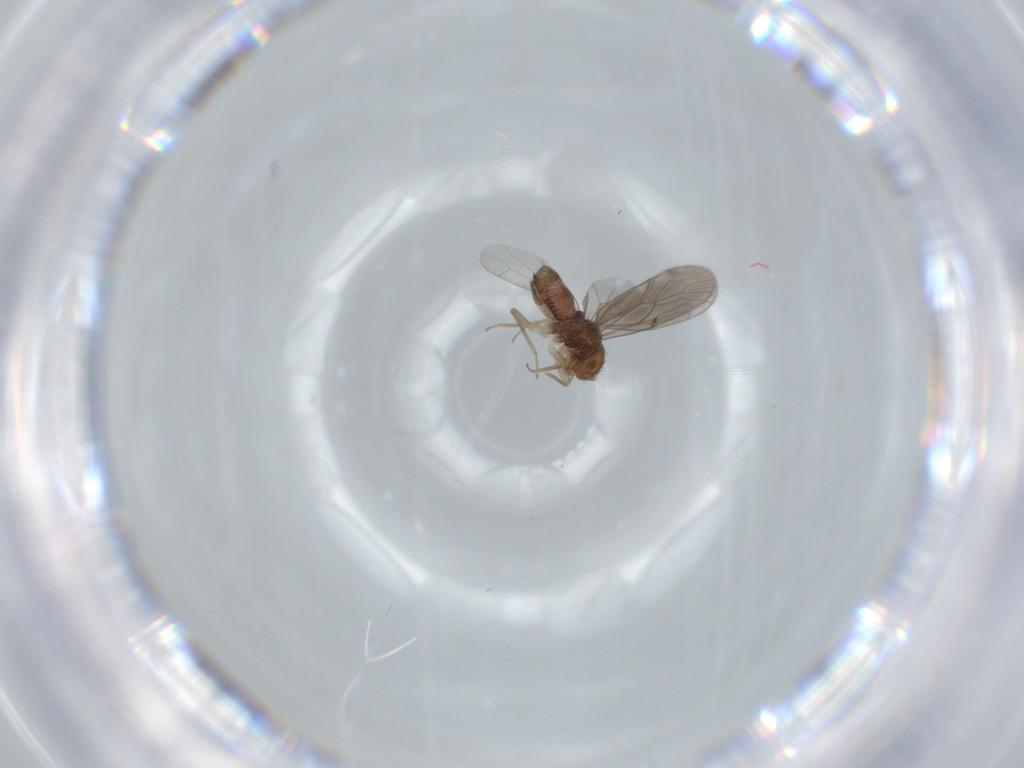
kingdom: Animalia
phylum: Arthropoda
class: Insecta
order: Psocodea
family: Ectopsocidae
